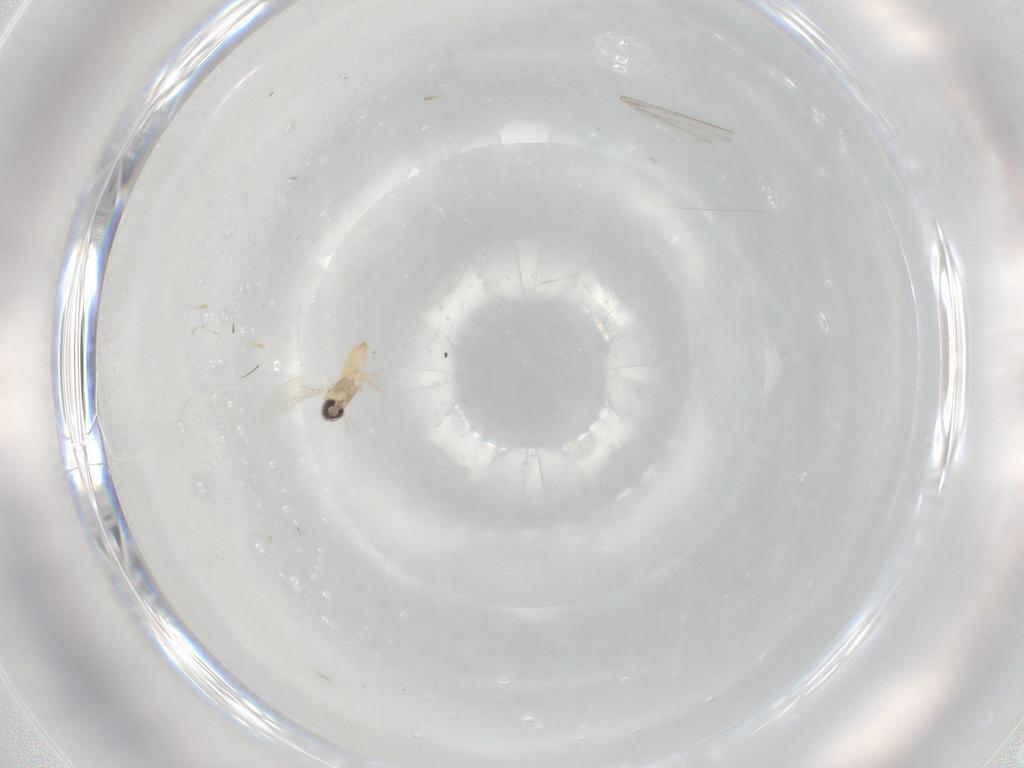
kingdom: Animalia
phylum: Arthropoda
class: Insecta
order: Diptera
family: Cecidomyiidae
